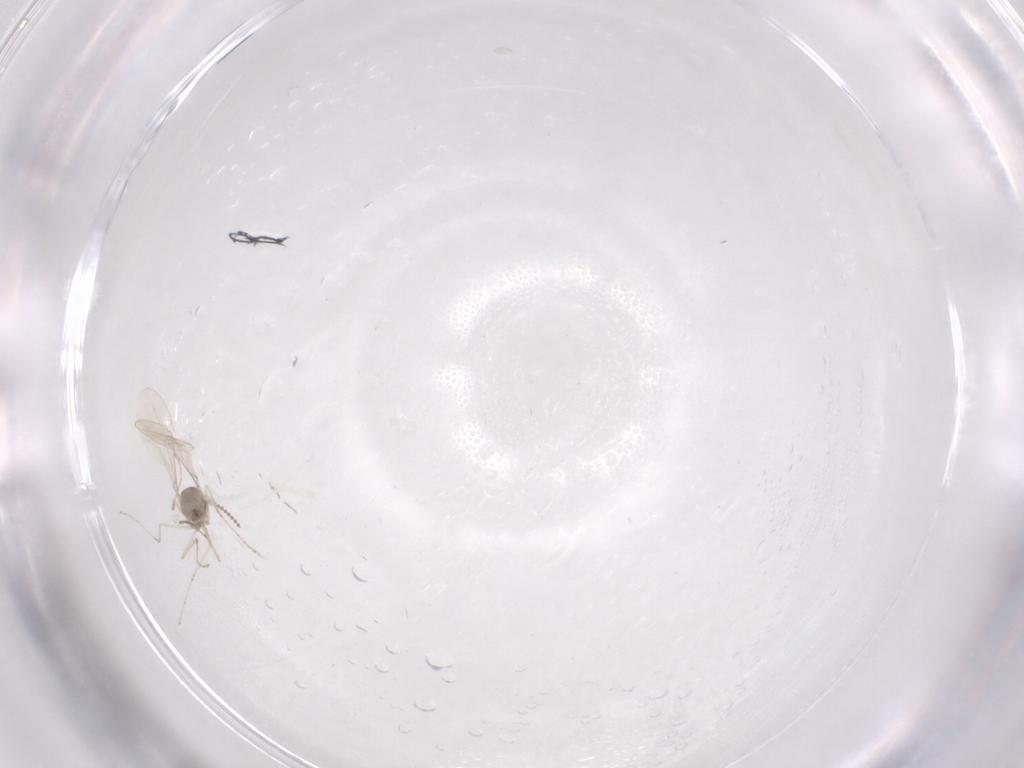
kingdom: Animalia
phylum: Arthropoda
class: Insecta
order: Diptera
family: Cecidomyiidae
